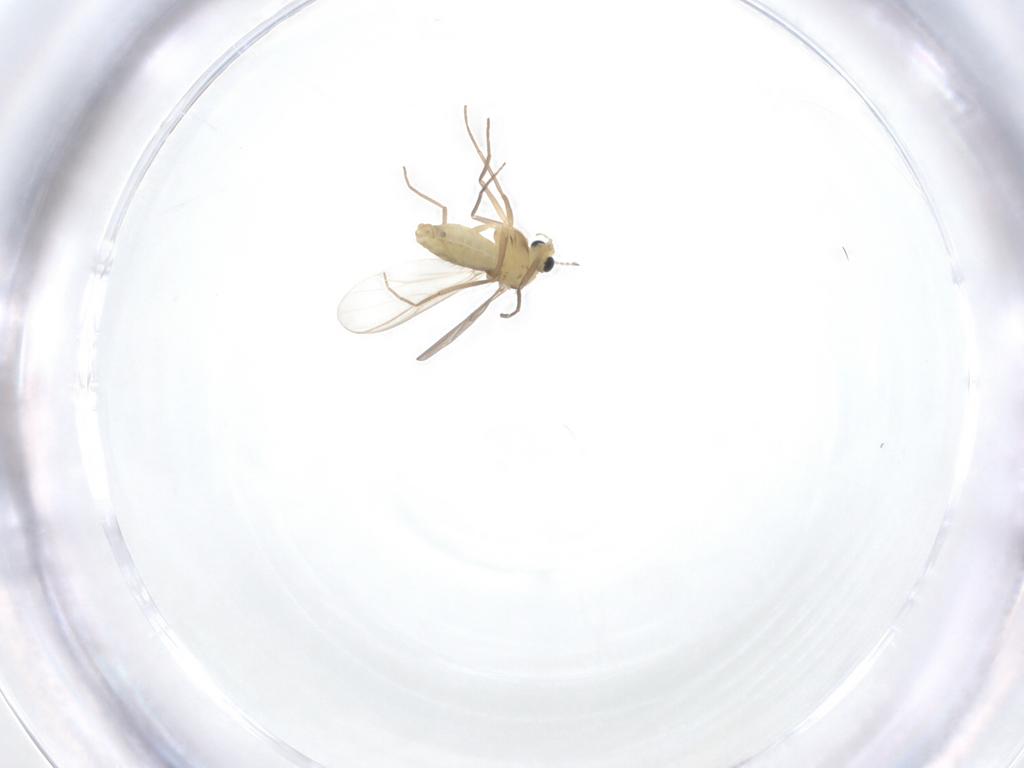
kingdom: Animalia
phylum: Arthropoda
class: Insecta
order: Diptera
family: Chironomidae
